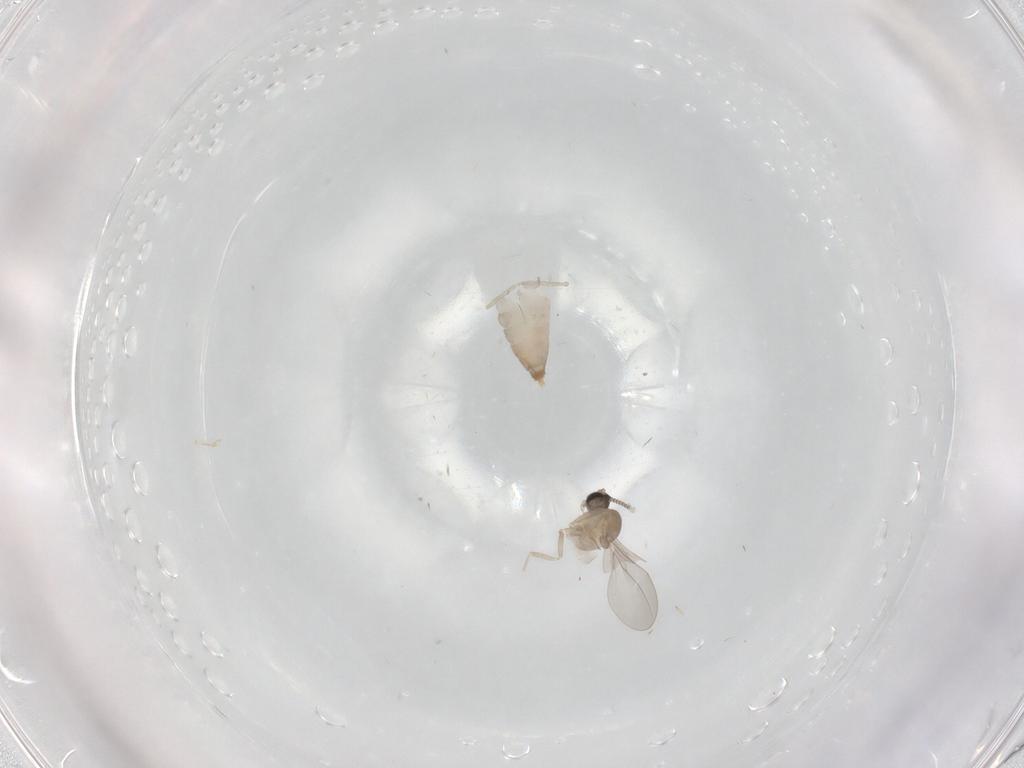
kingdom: Animalia
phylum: Arthropoda
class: Insecta
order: Diptera
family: Cecidomyiidae
